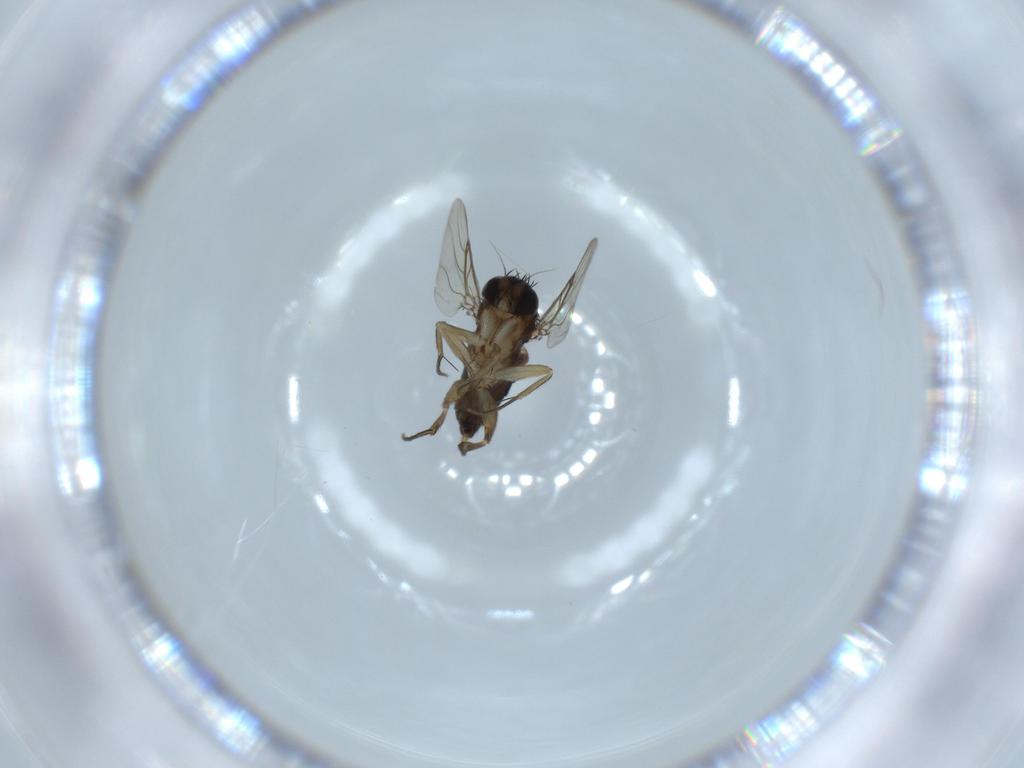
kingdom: Animalia
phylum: Arthropoda
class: Insecta
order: Diptera
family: Phoridae
